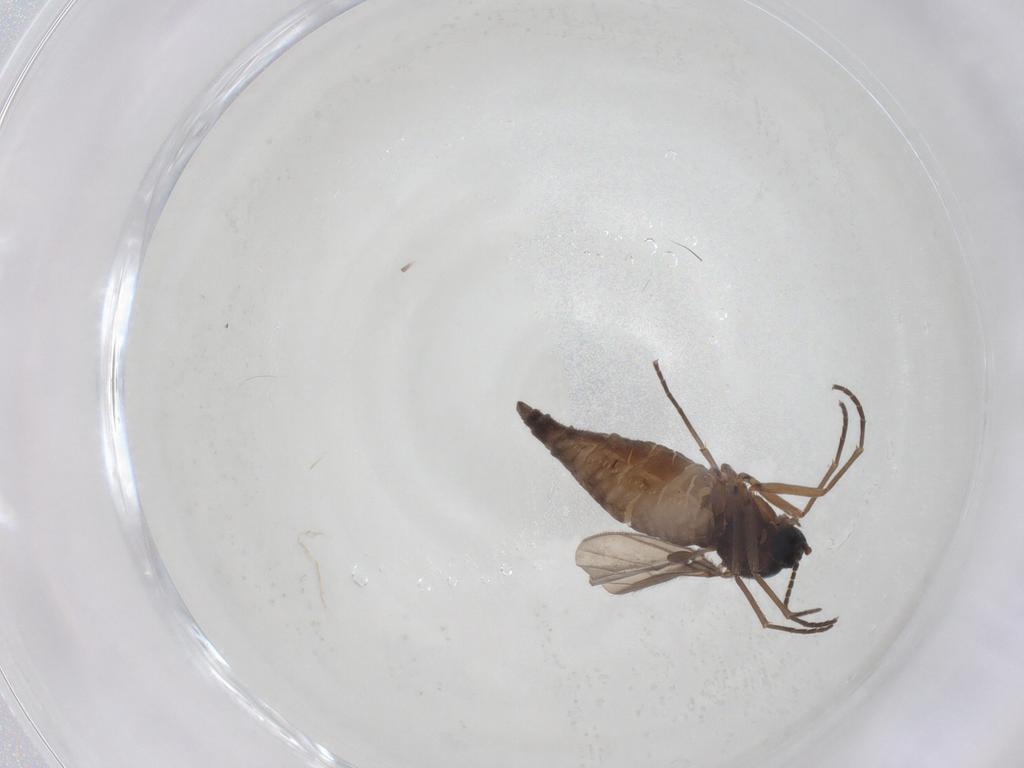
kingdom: Animalia
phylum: Arthropoda
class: Insecta
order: Diptera
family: Sciaridae
